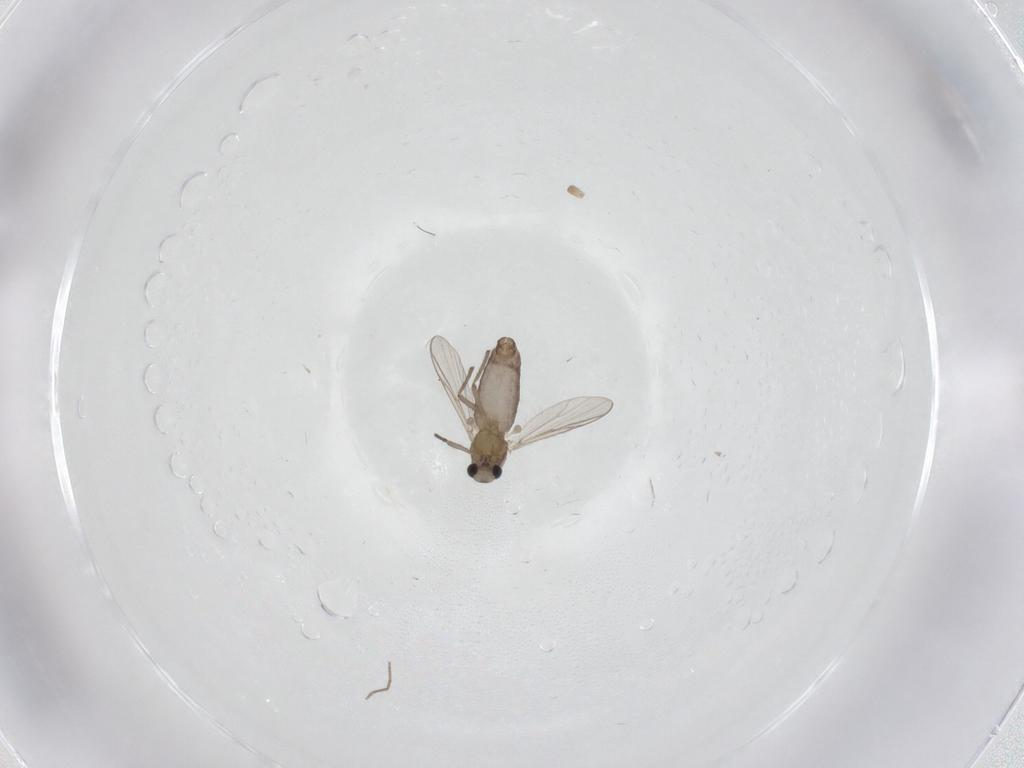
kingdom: Animalia
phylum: Arthropoda
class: Insecta
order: Diptera
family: Chironomidae
